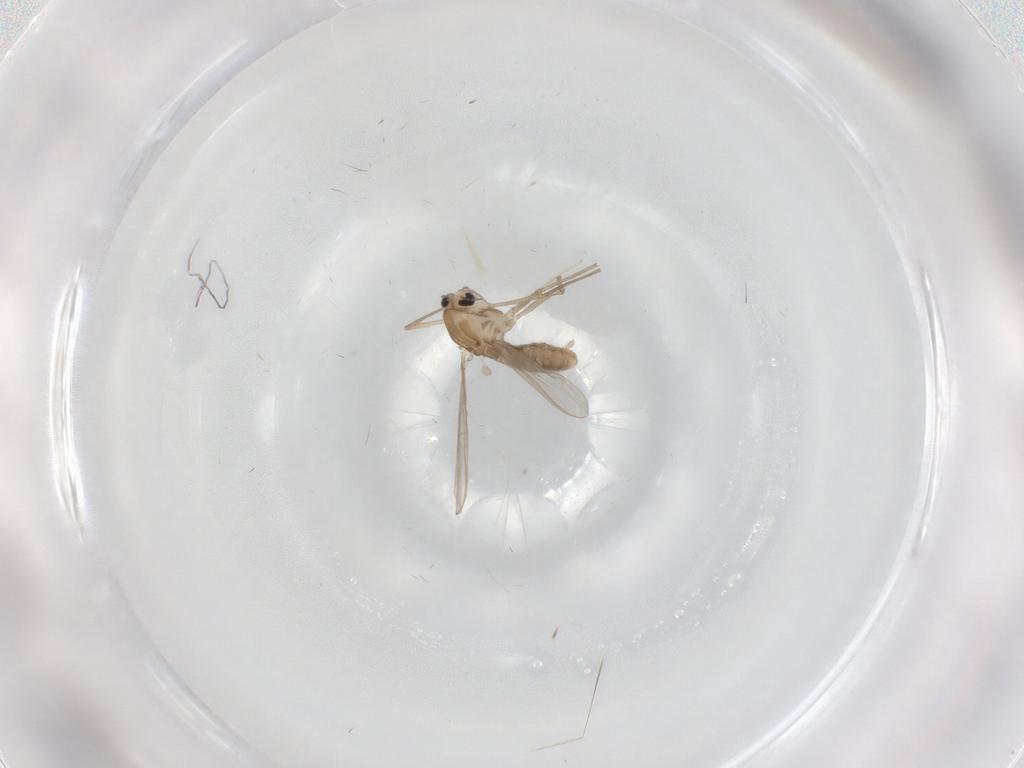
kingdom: Animalia
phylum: Arthropoda
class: Insecta
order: Diptera
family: Chironomidae
